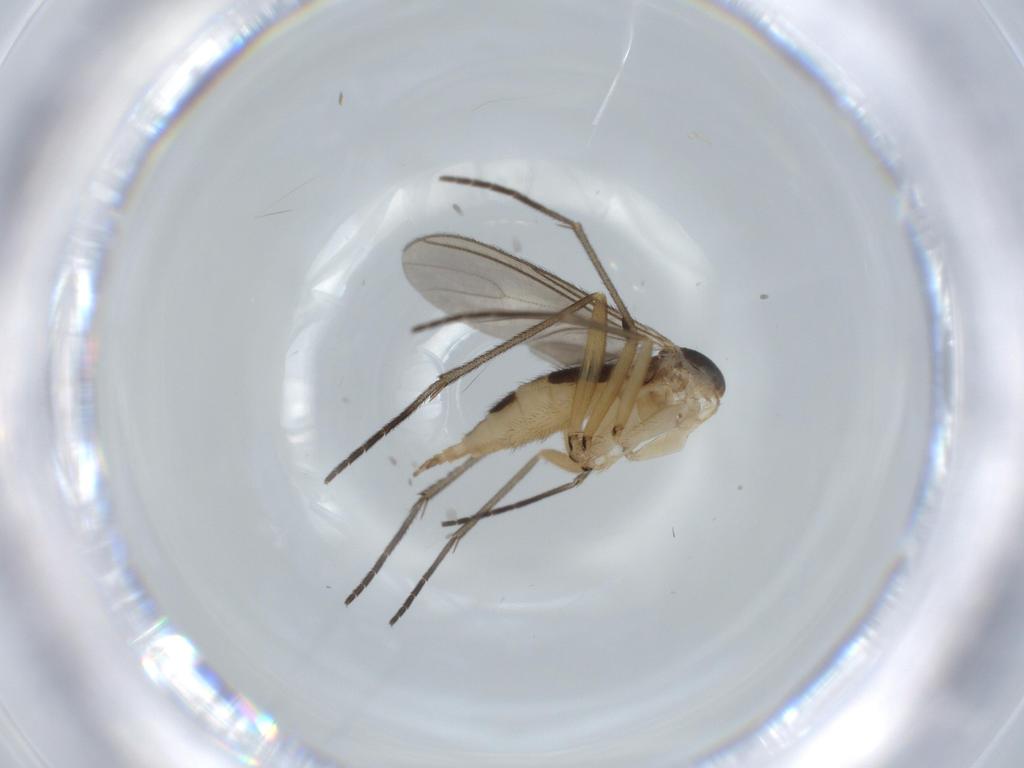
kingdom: Animalia
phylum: Arthropoda
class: Insecta
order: Diptera
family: Sciaridae
